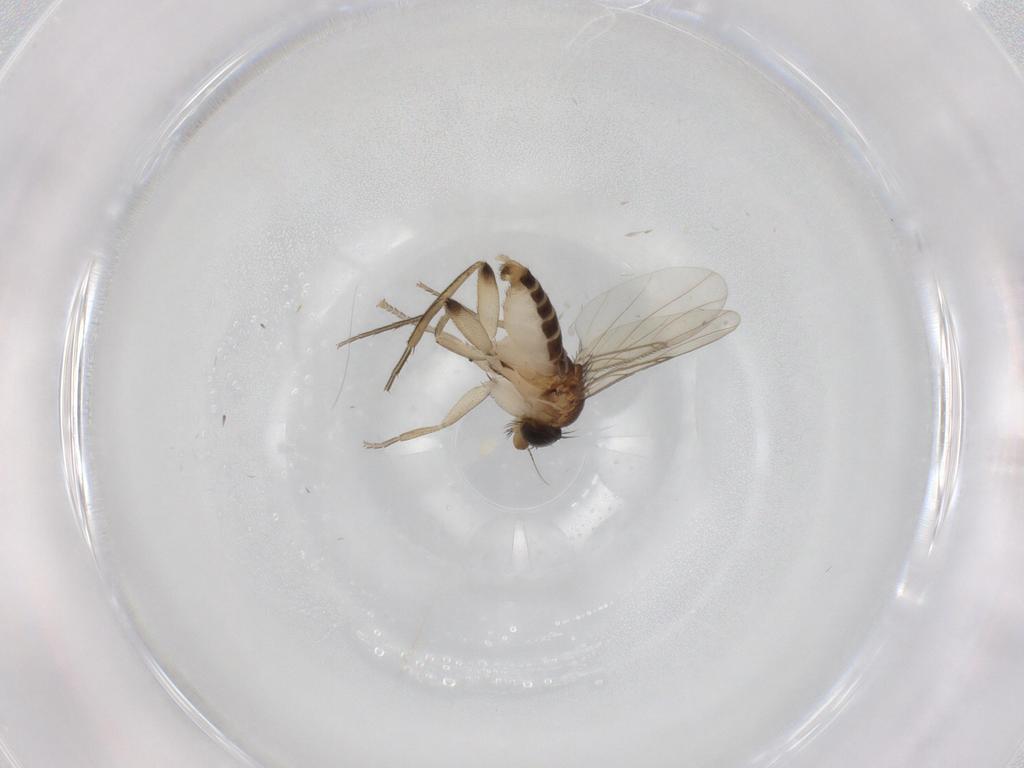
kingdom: Animalia
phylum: Arthropoda
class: Insecta
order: Diptera
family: Phoridae
